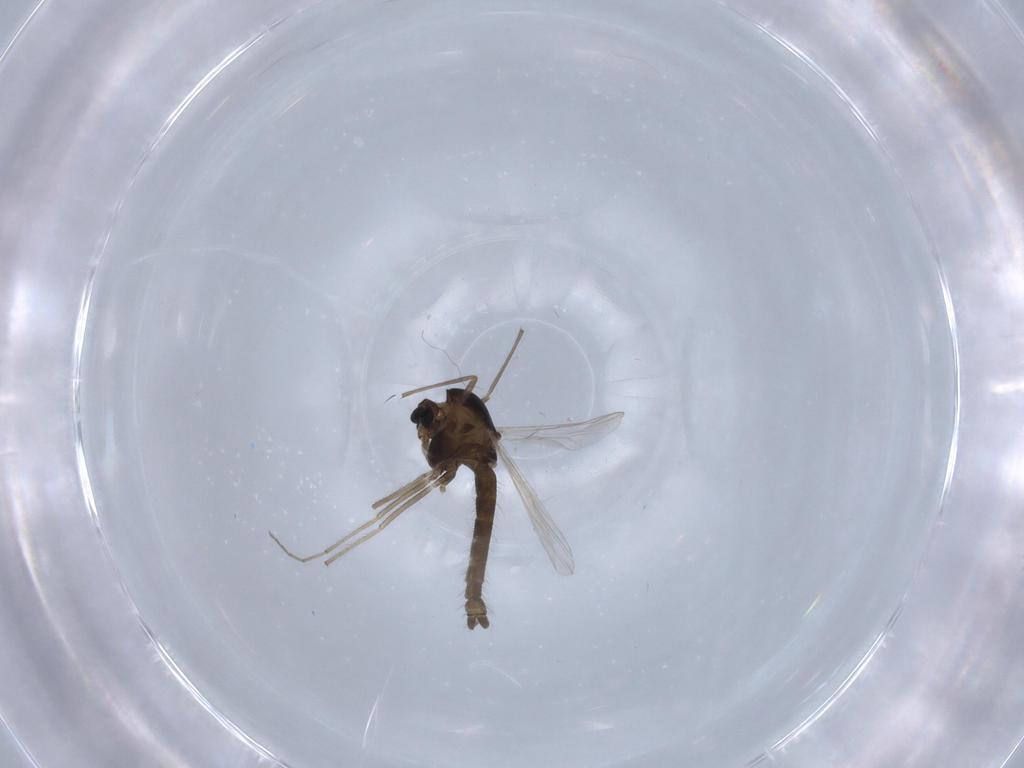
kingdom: Animalia
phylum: Arthropoda
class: Insecta
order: Diptera
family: Chironomidae
